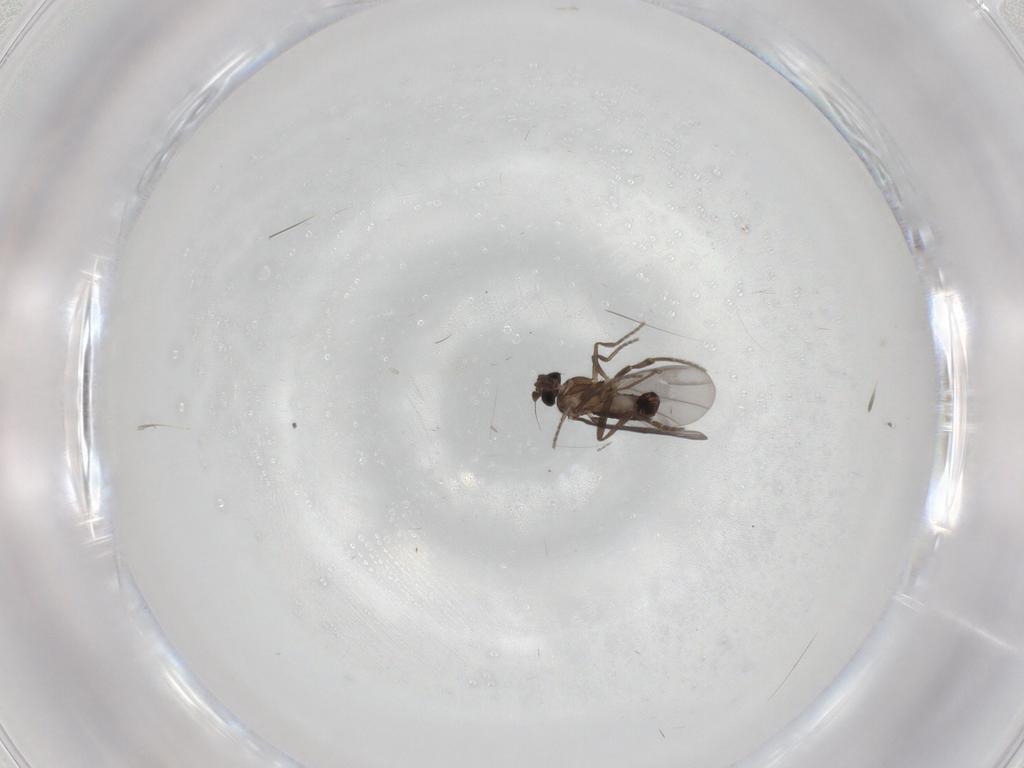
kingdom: Animalia
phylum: Arthropoda
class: Insecta
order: Diptera
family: Phoridae
